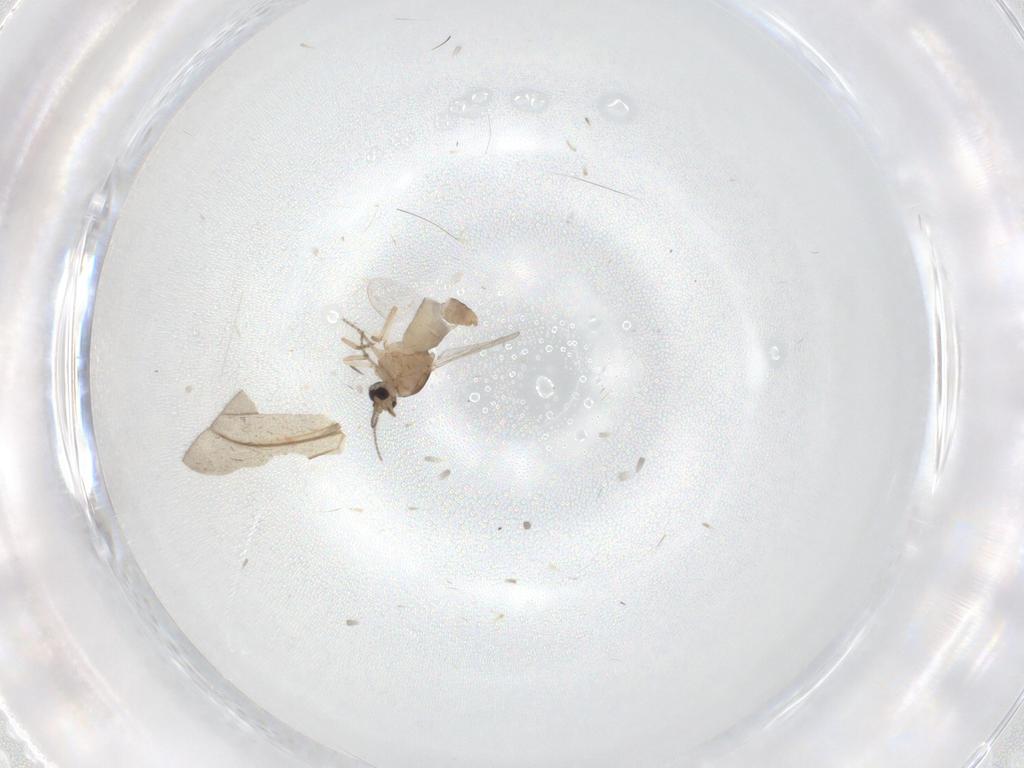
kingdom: Animalia
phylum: Arthropoda
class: Insecta
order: Diptera
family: Ceratopogonidae
